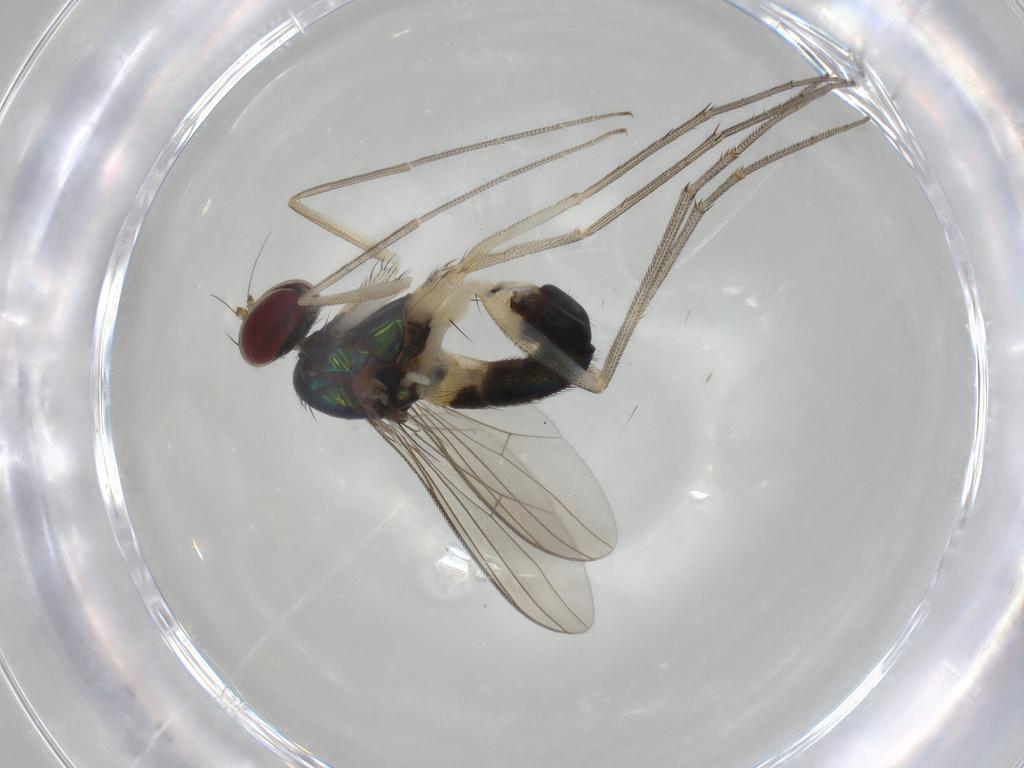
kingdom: Animalia
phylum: Arthropoda
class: Insecta
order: Diptera
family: Dolichopodidae
